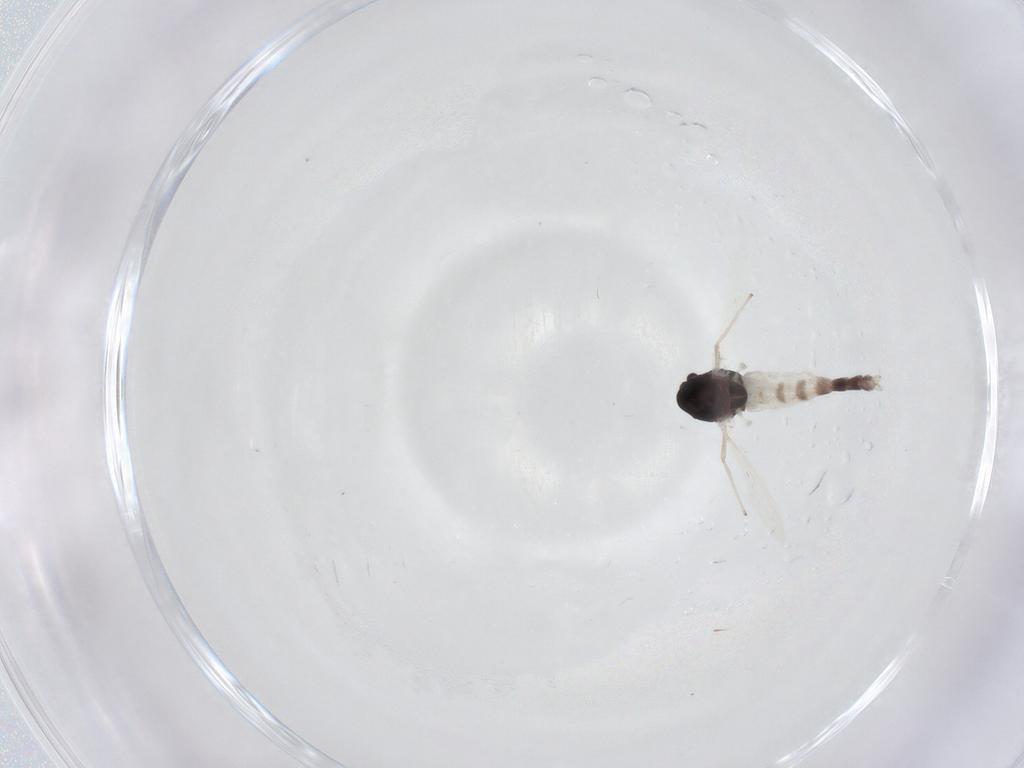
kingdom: Animalia
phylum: Arthropoda
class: Insecta
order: Diptera
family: Chironomidae
